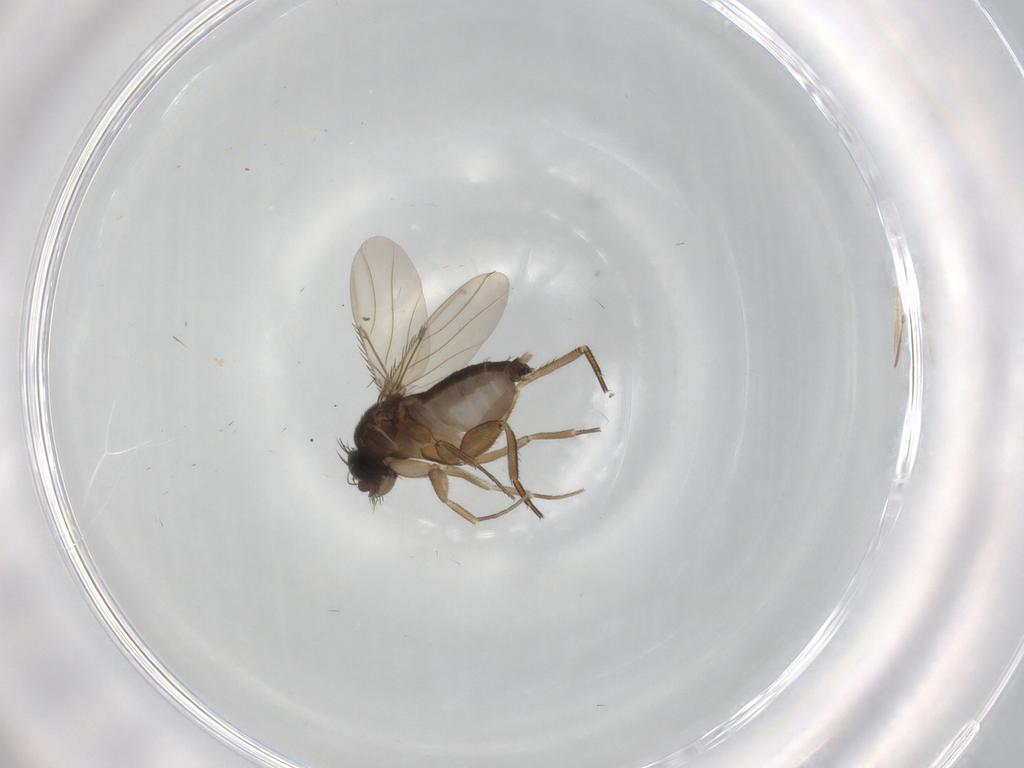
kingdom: Animalia
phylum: Arthropoda
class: Insecta
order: Diptera
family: Phoridae
